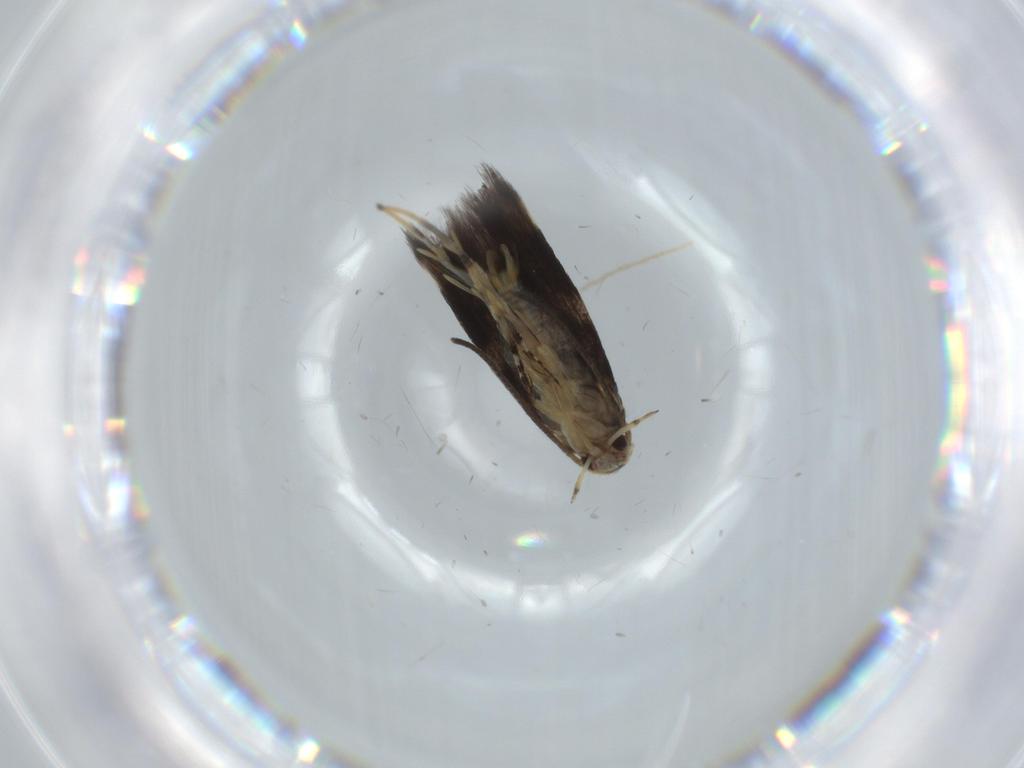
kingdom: Animalia
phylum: Arthropoda
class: Insecta
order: Lepidoptera
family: Cosmopterigidae
